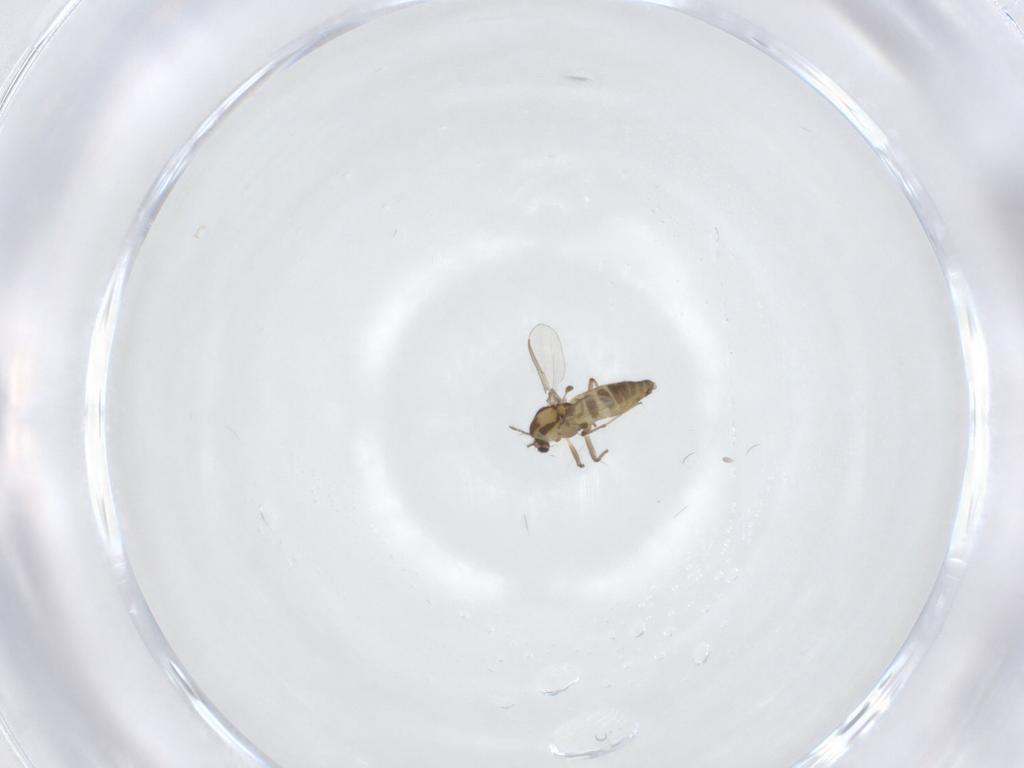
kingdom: Animalia
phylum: Arthropoda
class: Insecta
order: Diptera
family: Chironomidae
